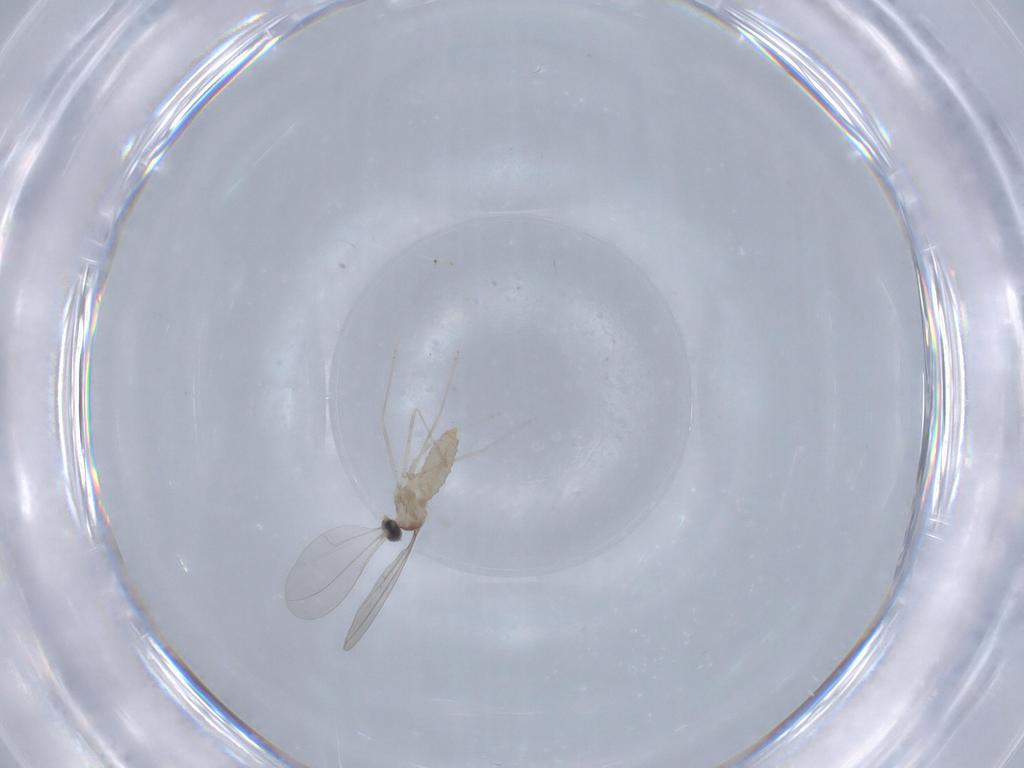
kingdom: Animalia
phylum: Arthropoda
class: Insecta
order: Diptera
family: Cecidomyiidae
